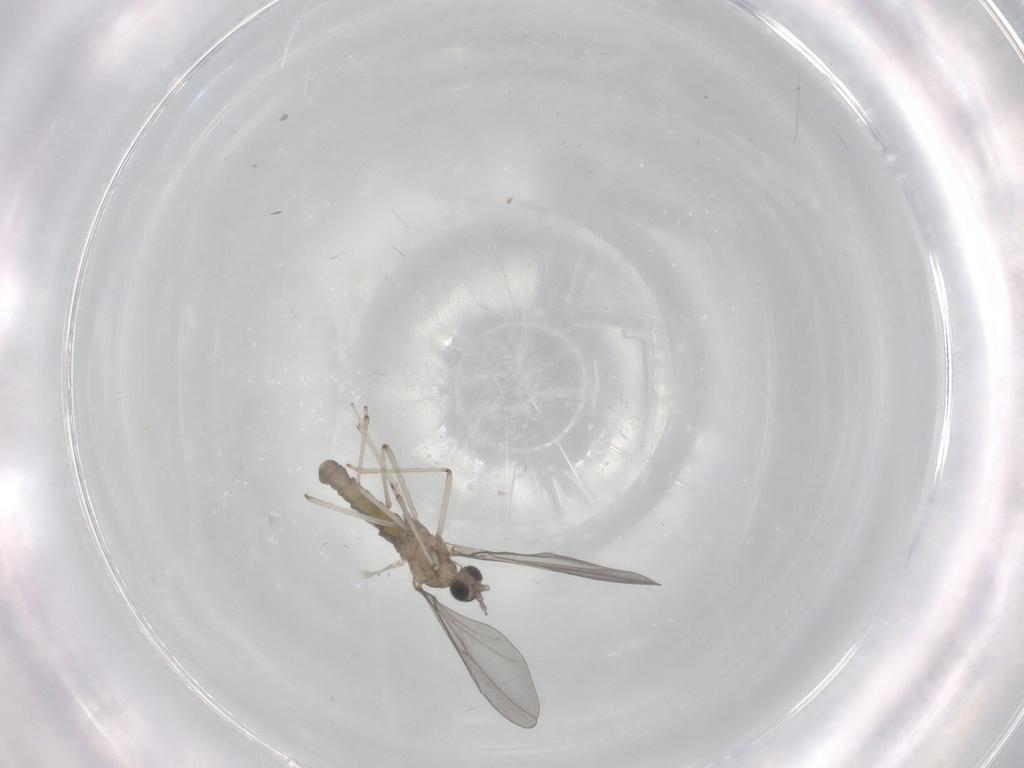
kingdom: Animalia
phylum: Arthropoda
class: Insecta
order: Diptera
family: Cecidomyiidae
